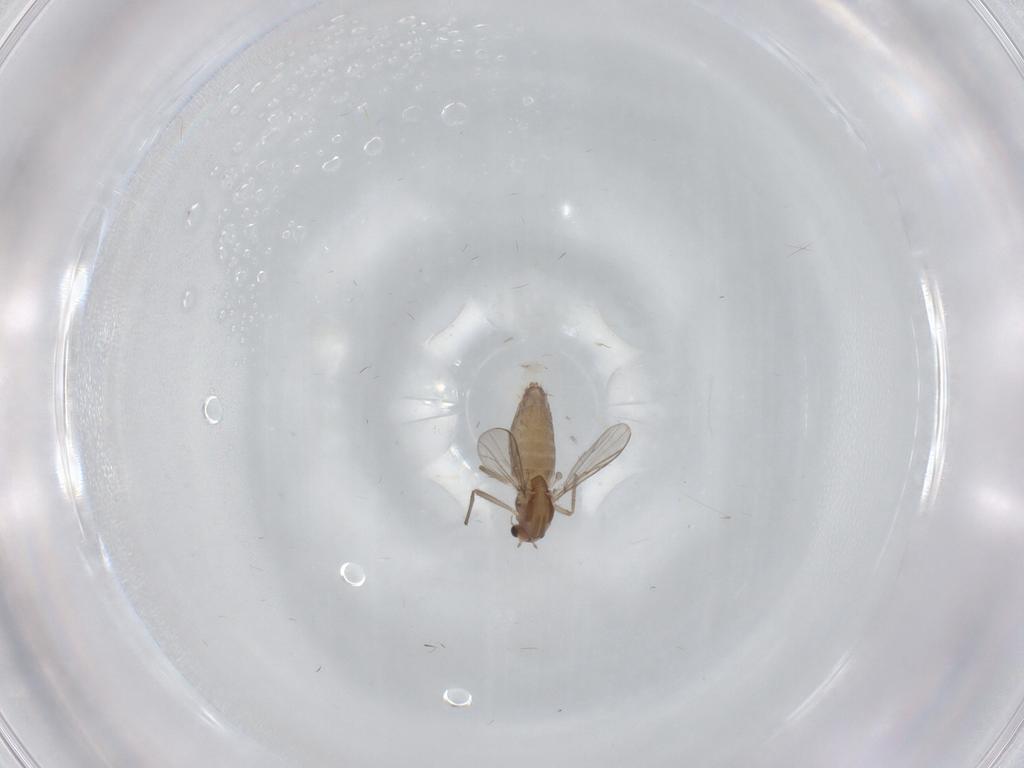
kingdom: Animalia
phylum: Arthropoda
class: Insecta
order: Diptera
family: Chironomidae
